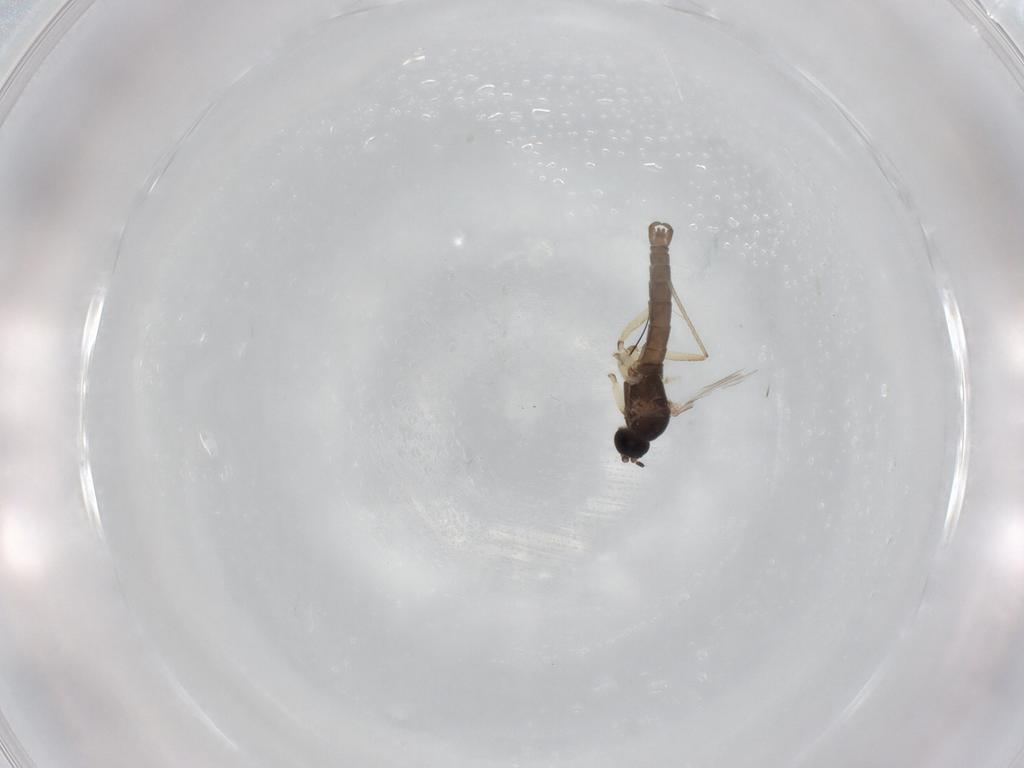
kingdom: Animalia
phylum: Arthropoda
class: Insecta
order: Diptera
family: Sciaridae
